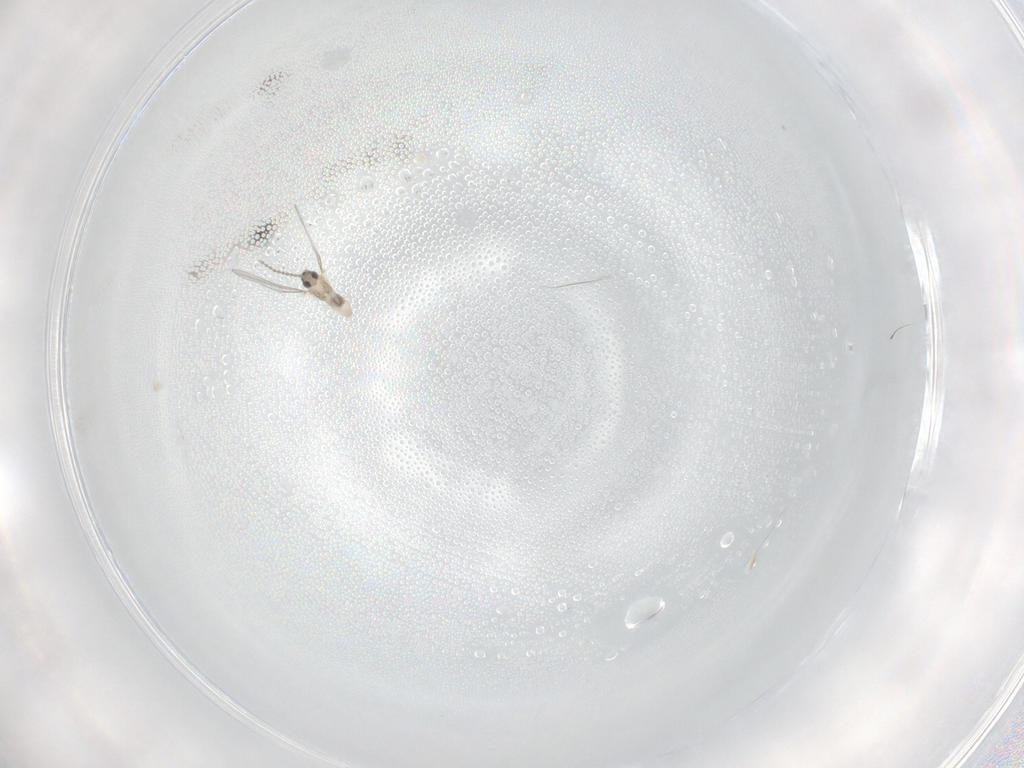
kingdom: Animalia
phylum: Arthropoda
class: Insecta
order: Diptera
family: Cecidomyiidae
